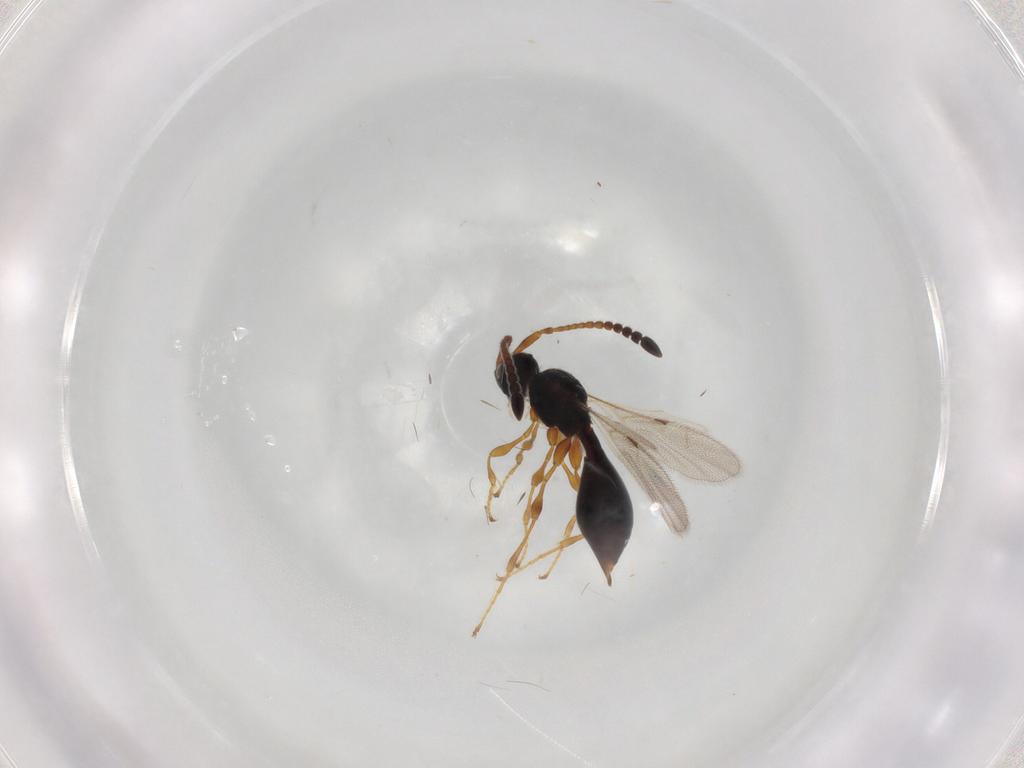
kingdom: Animalia
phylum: Arthropoda
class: Insecta
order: Hymenoptera
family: Diapriidae
